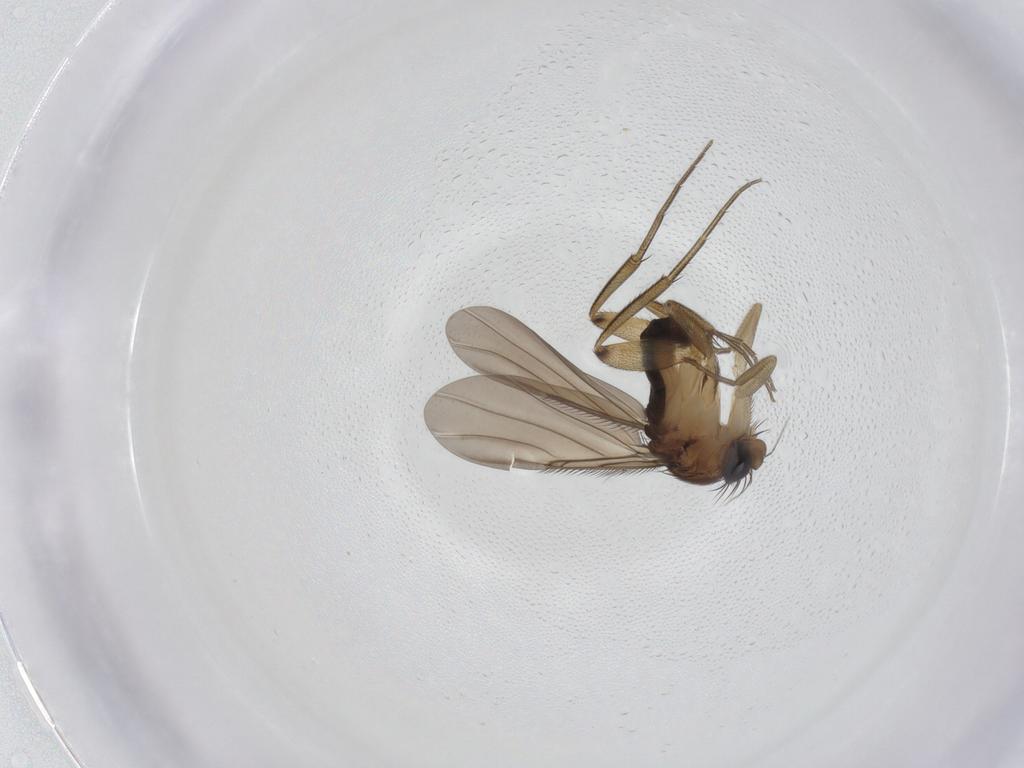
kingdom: Animalia
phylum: Arthropoda
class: Insecta
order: Diptera
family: Phoridae
